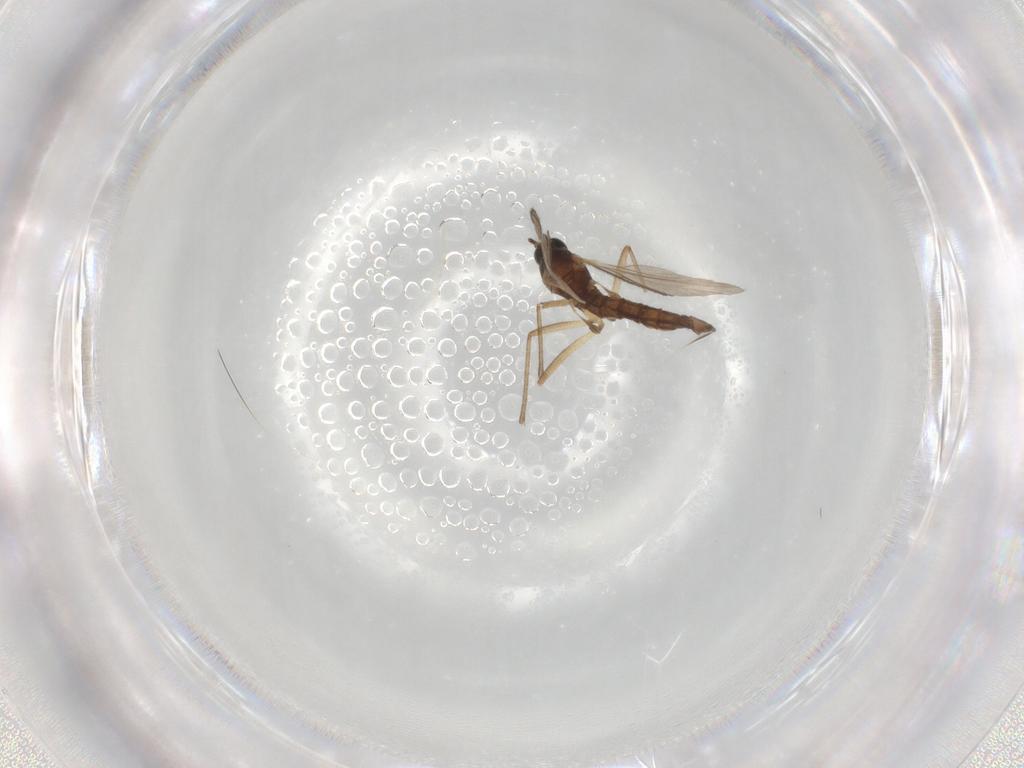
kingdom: Animalia
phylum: Arthropoda
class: Insecta
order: Diptera
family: Sciaridae
